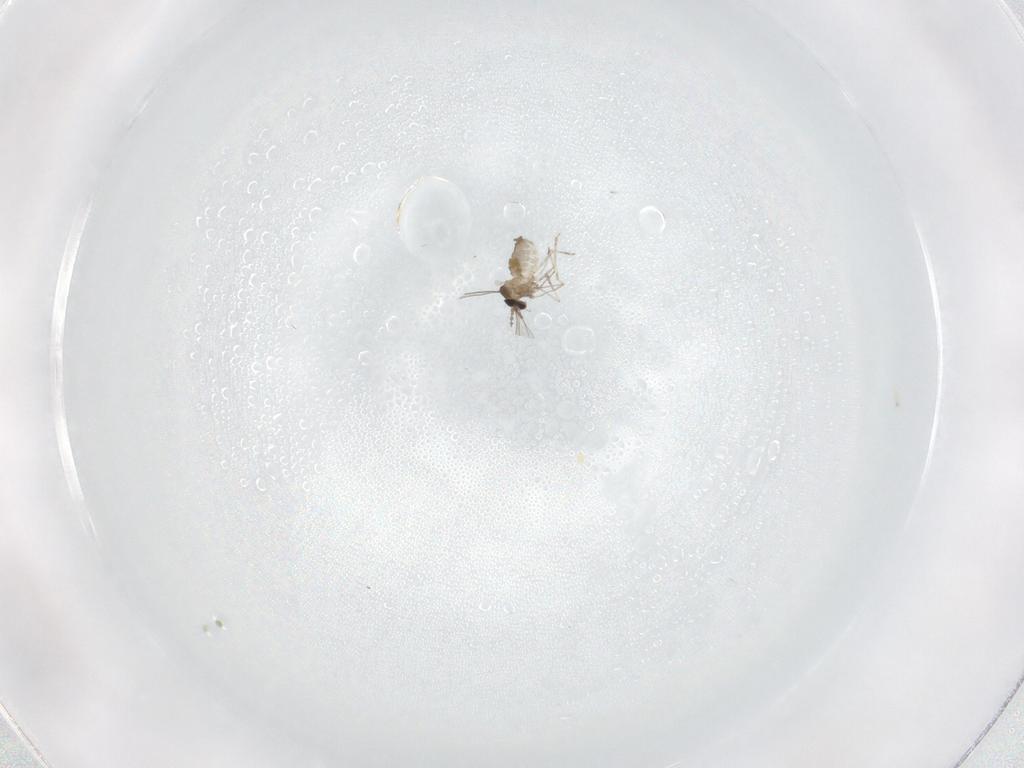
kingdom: Animalia
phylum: Arthropoda
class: Insecta
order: Diptera
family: Cecidomyiidae
